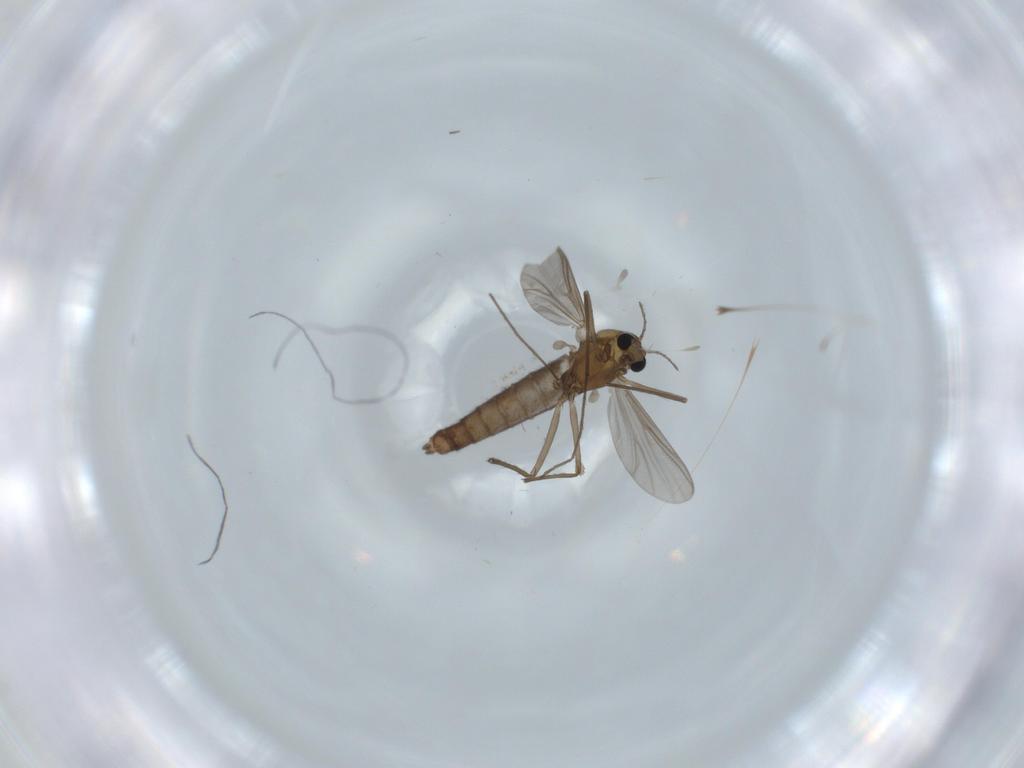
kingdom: Animalia
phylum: Arthropoda
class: Insecta
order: Diptera
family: Chironomidae
